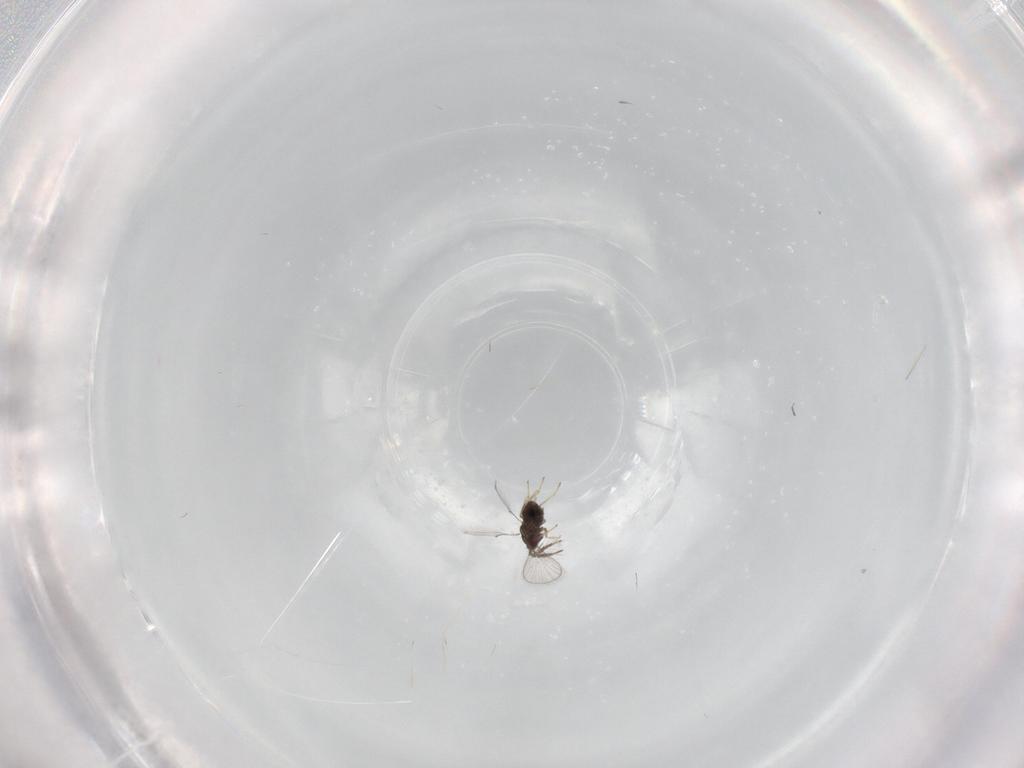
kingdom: Animalia
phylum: Arthropoda
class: Insecta
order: Hymenoptera
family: Trichogrammatidae
